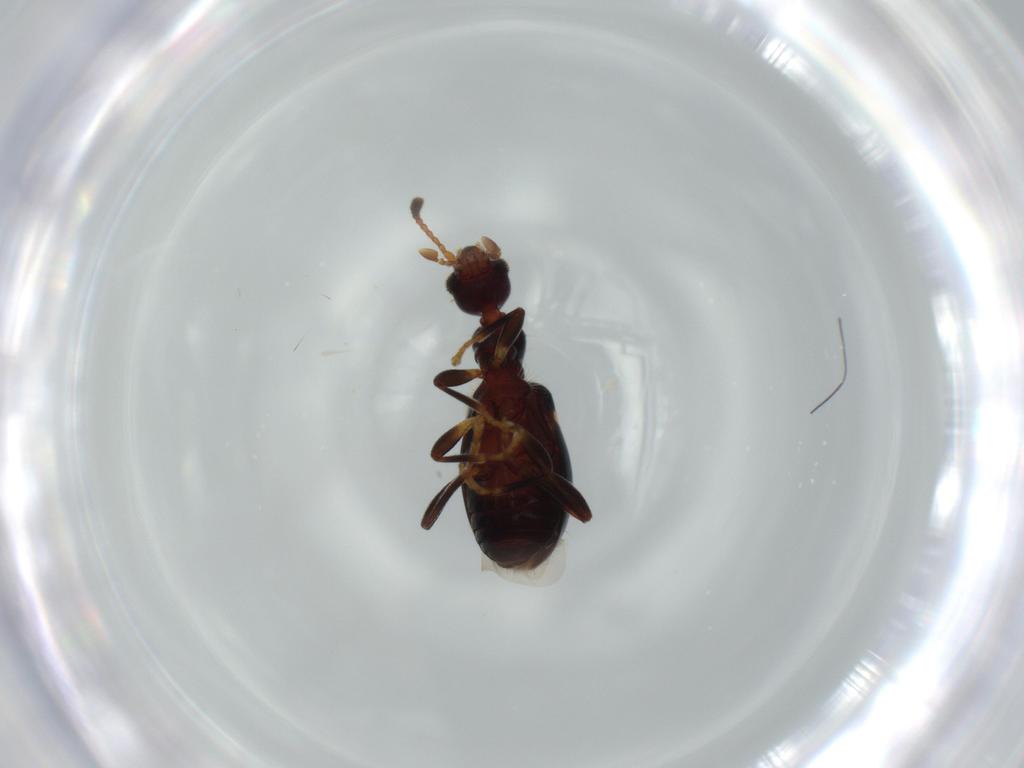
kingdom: Animalia
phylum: Arthropoda
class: Insecta
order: Coleoptera
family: Anthicidae
